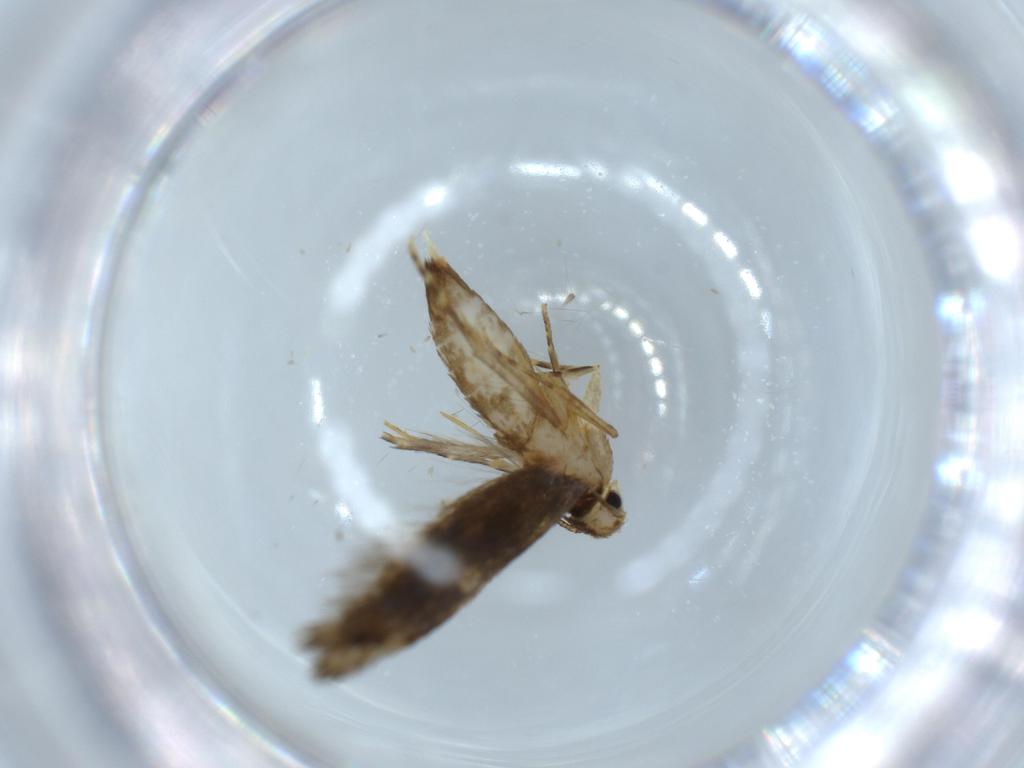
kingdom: Animalia
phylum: Arthropoda
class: Insecta
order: Lepidoptera
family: Tineidae
